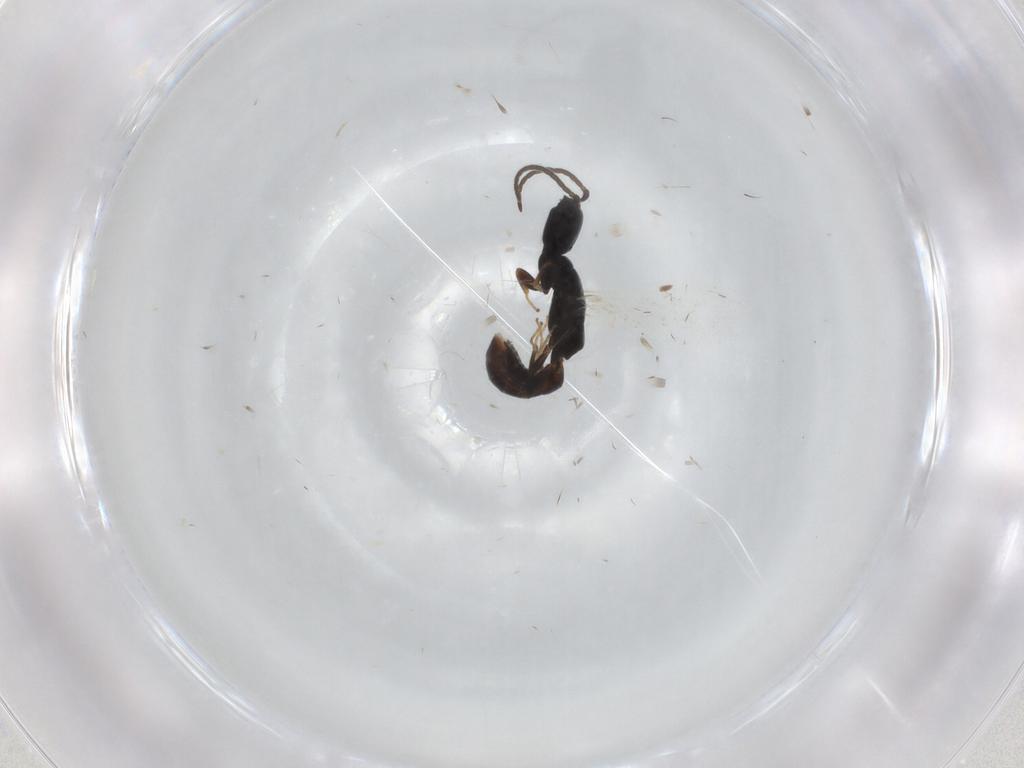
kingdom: Animalia
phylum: Arthropoda
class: Insecta
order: Hymenoptera
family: Bethylidae
